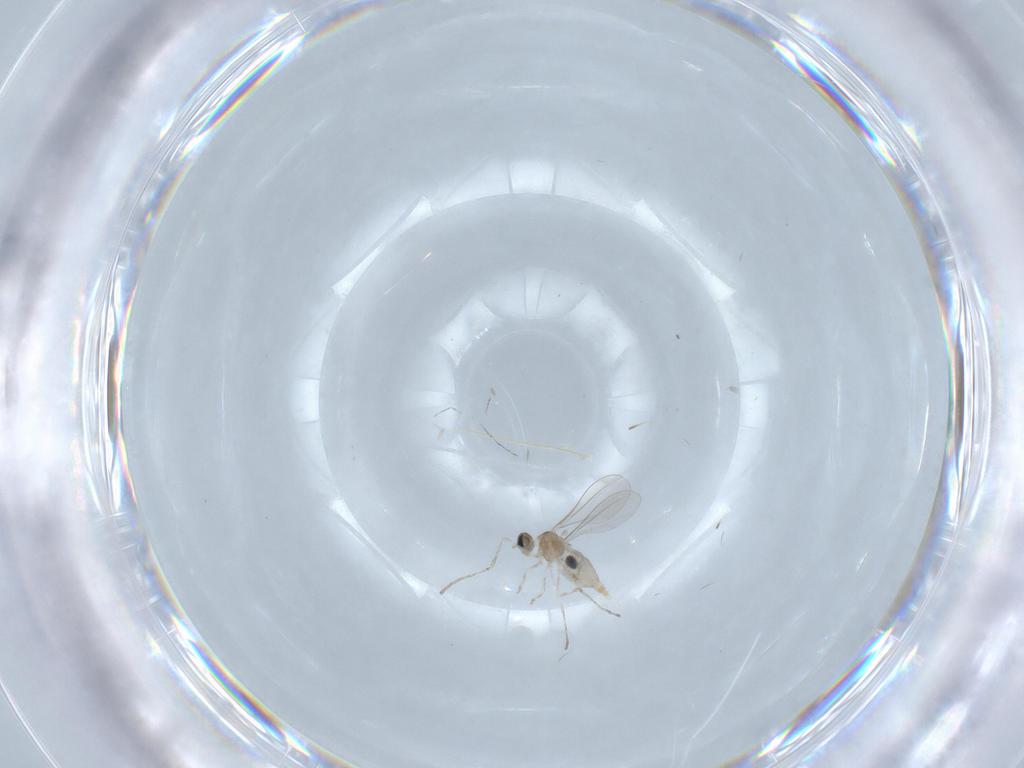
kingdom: Animalia
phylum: Arthropoda
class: Insecta
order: Diptera
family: Cecidomyiidae
